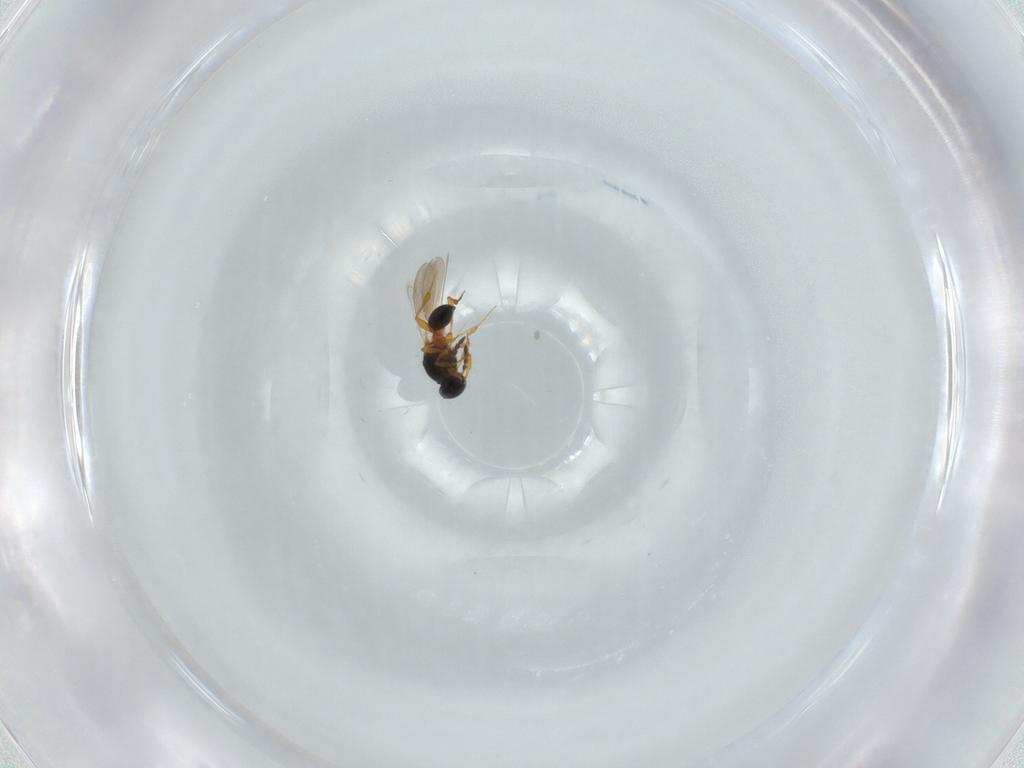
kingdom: Animalia
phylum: Arthropoda
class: Insecta
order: Hymenoptera
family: Platygastridae
